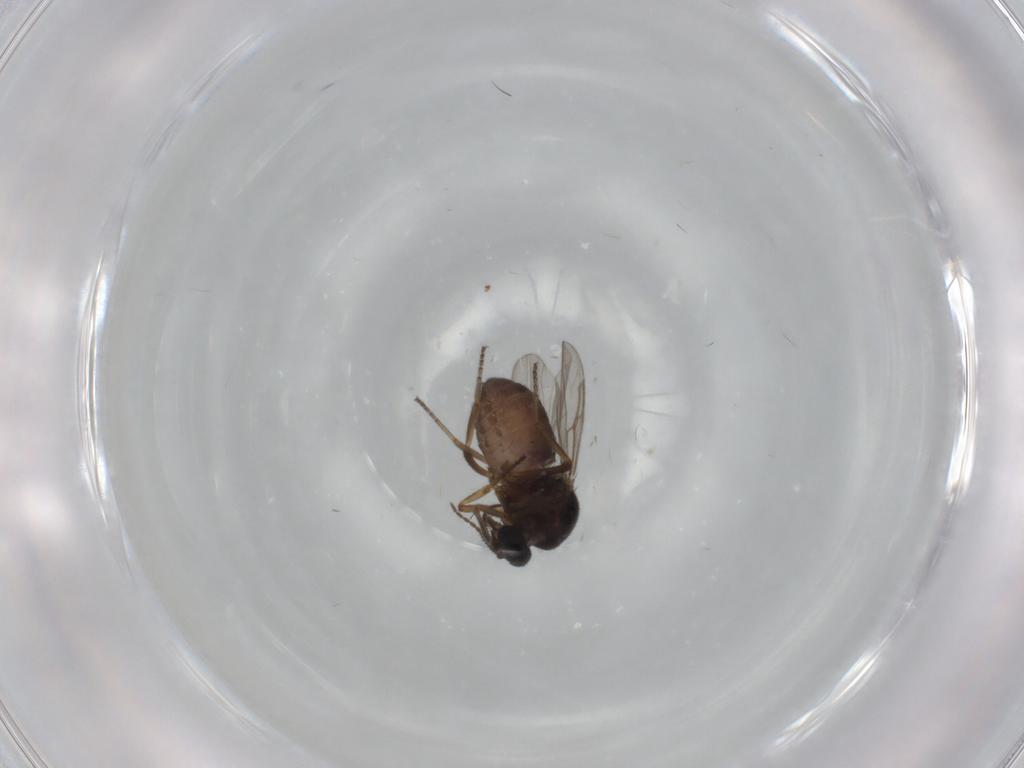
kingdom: Animalia
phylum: Arthropoda
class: Insecta
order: Diptera
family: Ceratopogonidae
